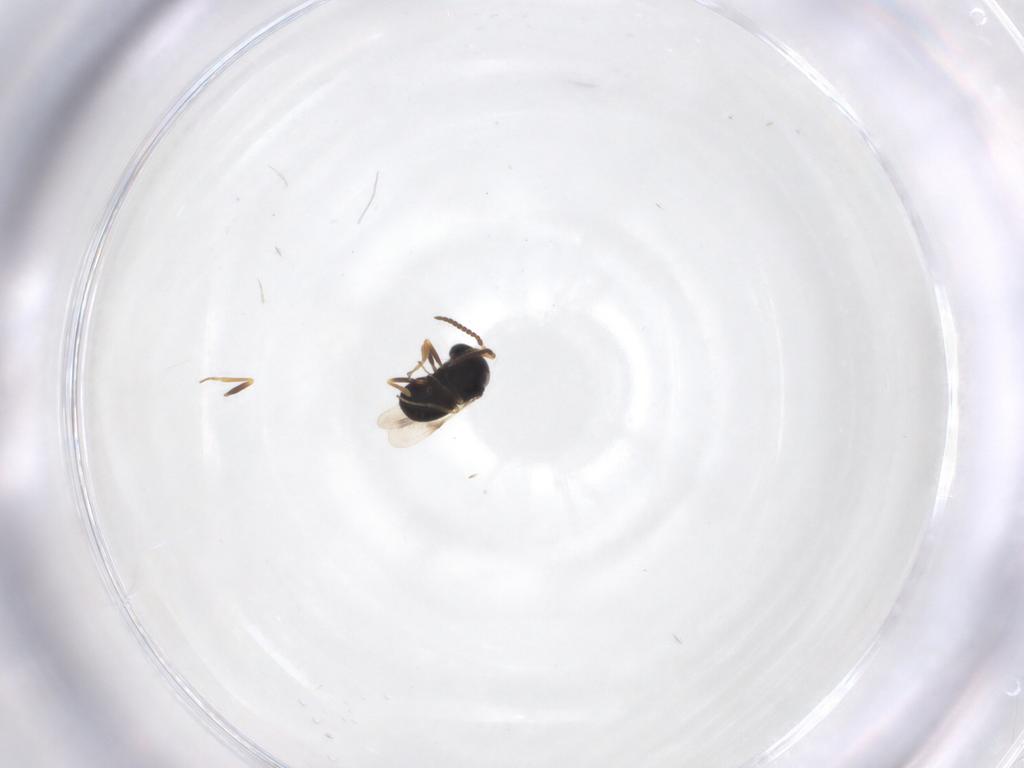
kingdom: Animalia
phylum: Arthropoda
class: Insecta
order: Hymenoptera
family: Scelionidae
